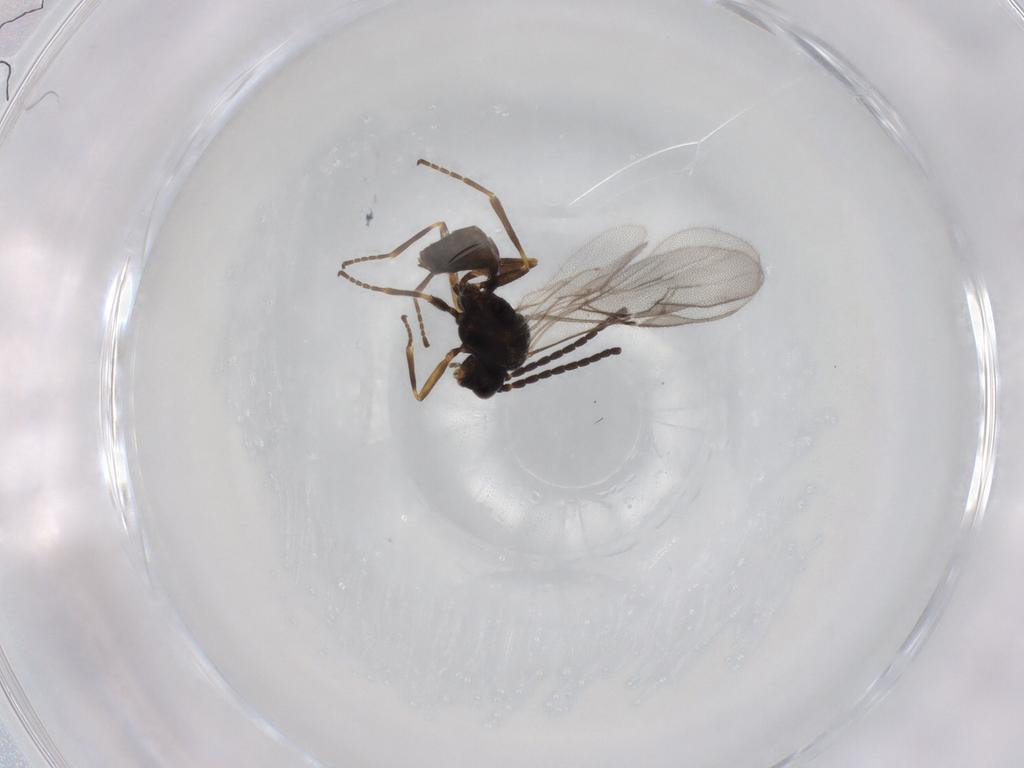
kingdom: Animalia
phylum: Arthropoda
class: Insecta
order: Hymenoptera
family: Braconidae
